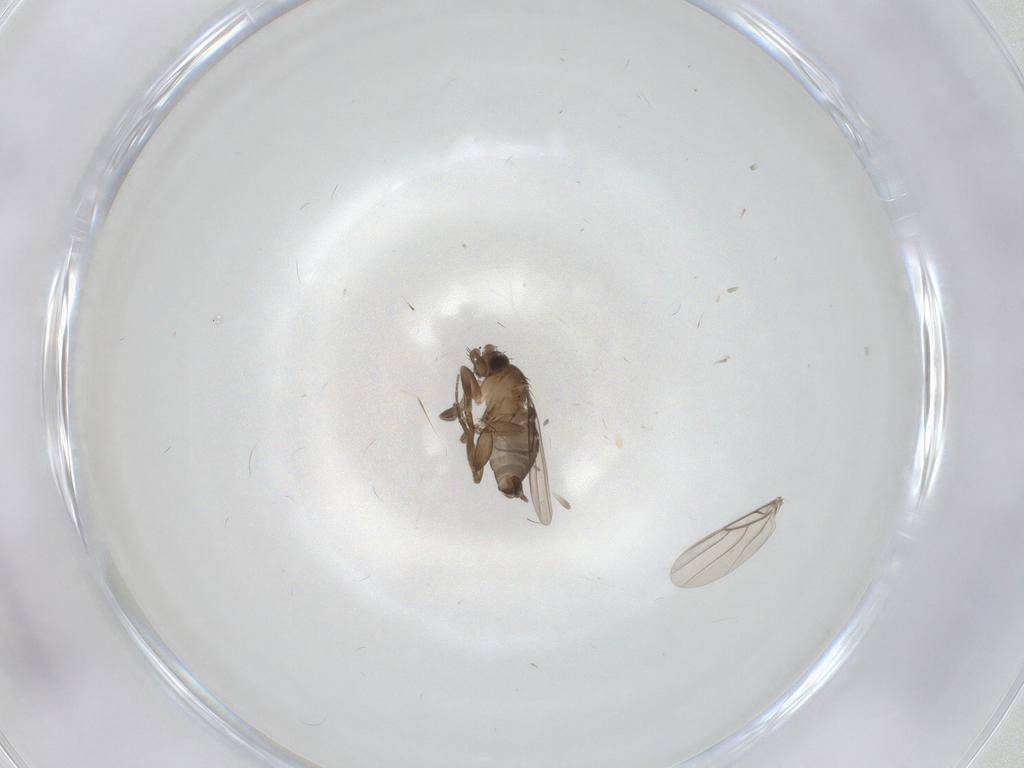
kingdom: Animalia
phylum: Arthropoda
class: Insecta
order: Diptera
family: Phoridae
